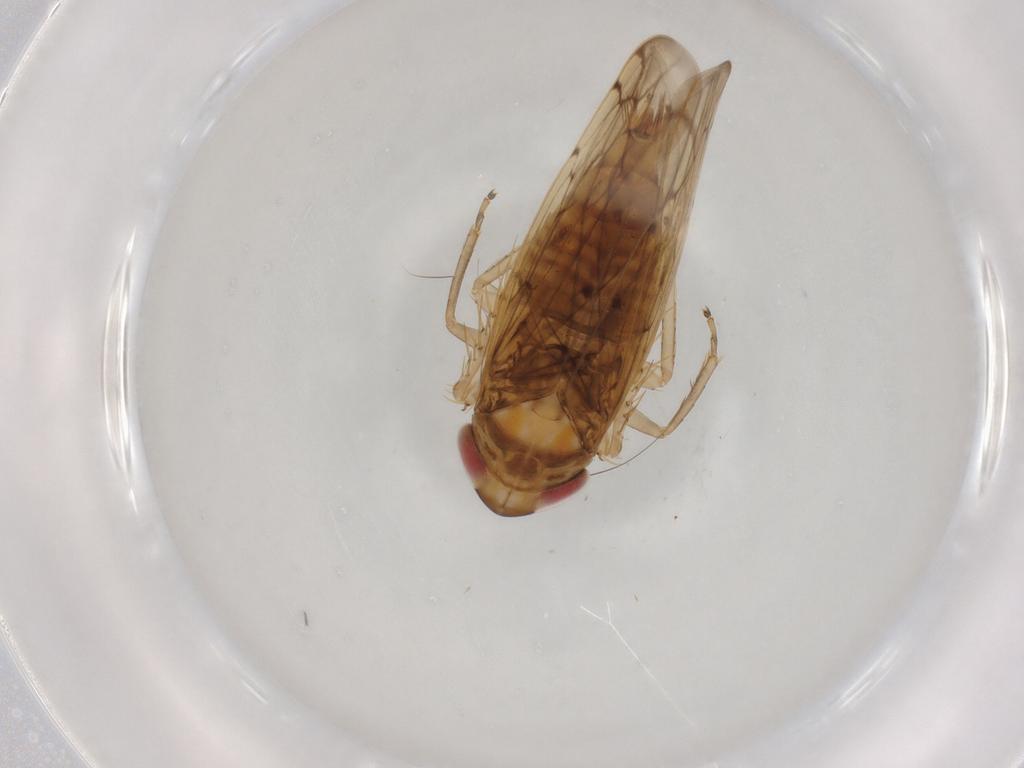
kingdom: Animalia
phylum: Arthropoda
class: Insecta
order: Hemiptera
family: Cicadellidae
